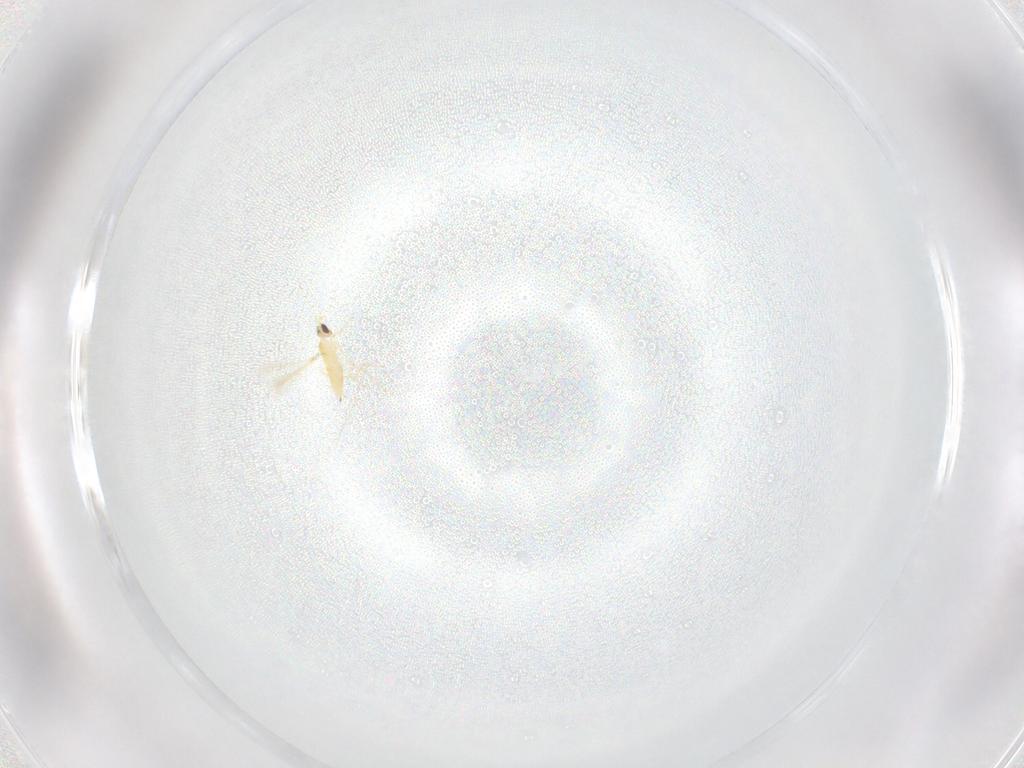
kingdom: Animalia
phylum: Arthropoda
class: Insecta
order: Hymenoptera
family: Mymaridae
